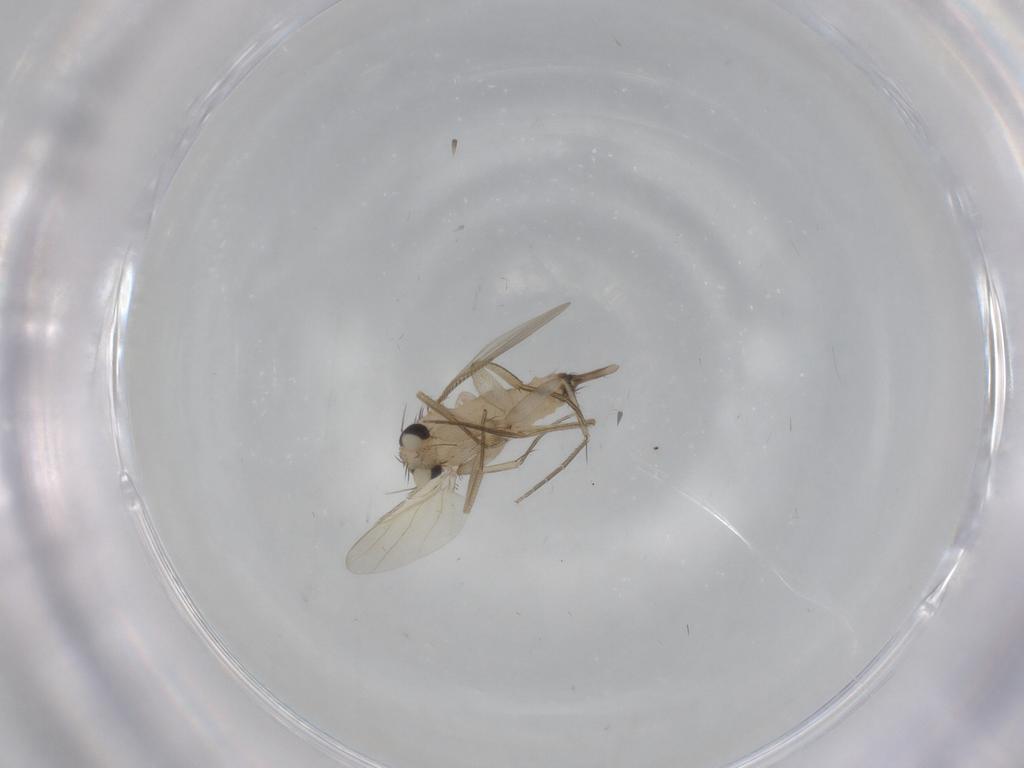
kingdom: Animalia
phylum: Arthropoda
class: Insecta
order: Diptera
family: Phoridae
